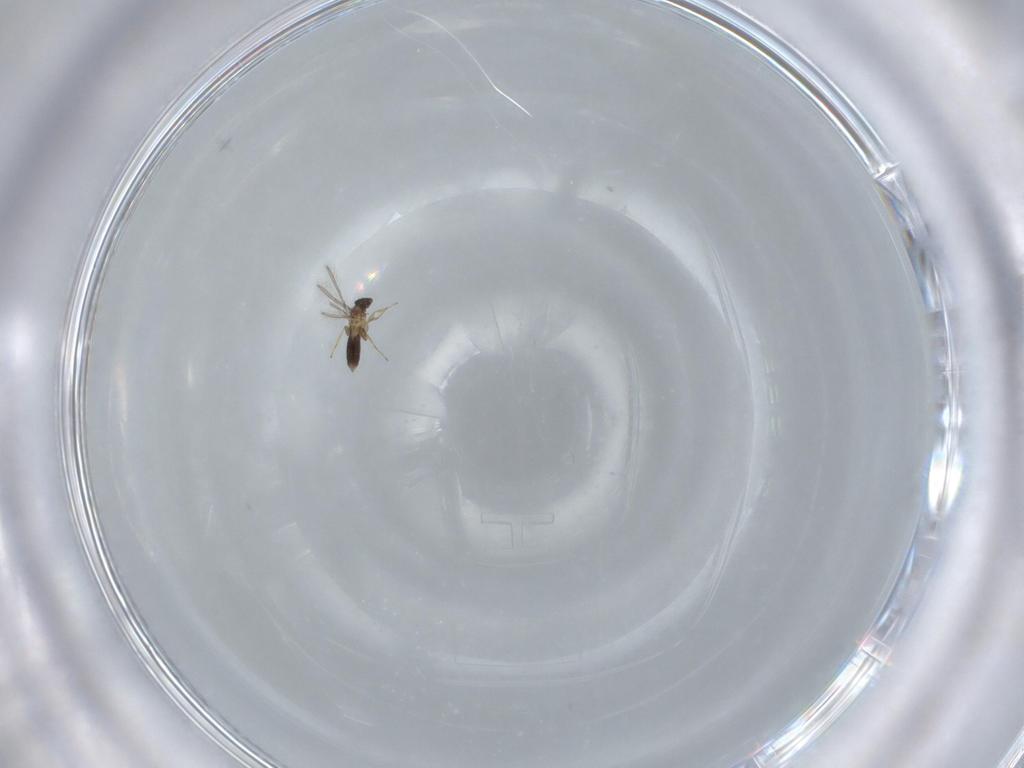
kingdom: Animalia
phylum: Arthropoda
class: Insecta
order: Hymenoptera
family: Mymaridae
